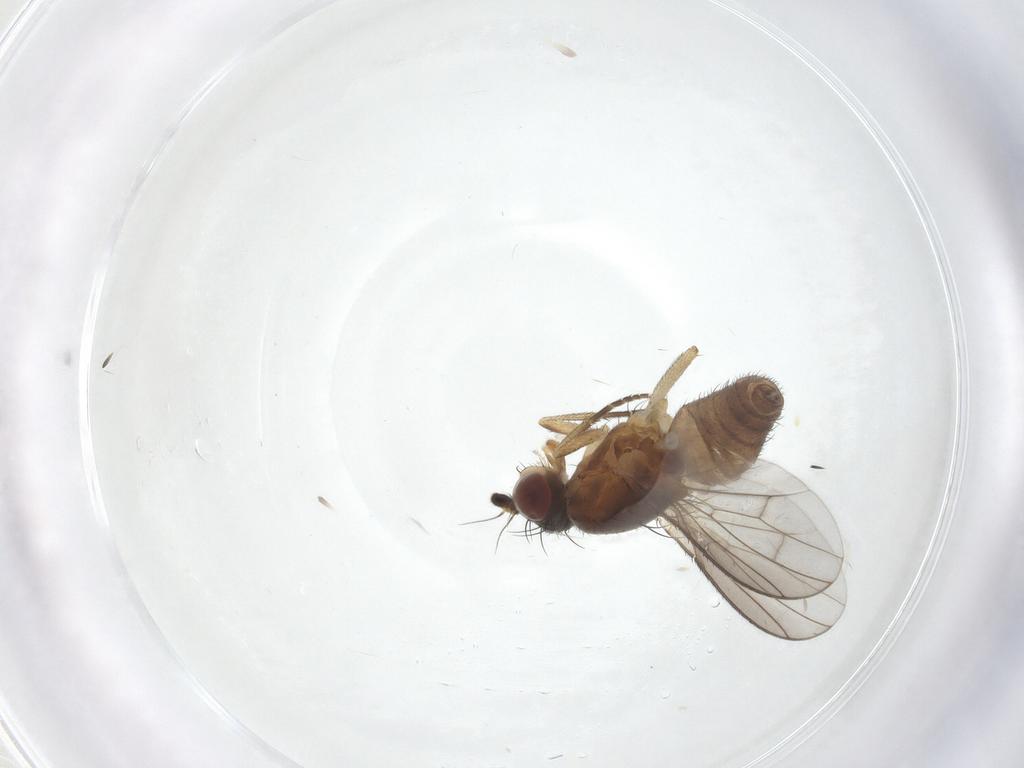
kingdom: Animalia
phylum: Arthropoda
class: Insecta
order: Diptera
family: Heleomyzidae
